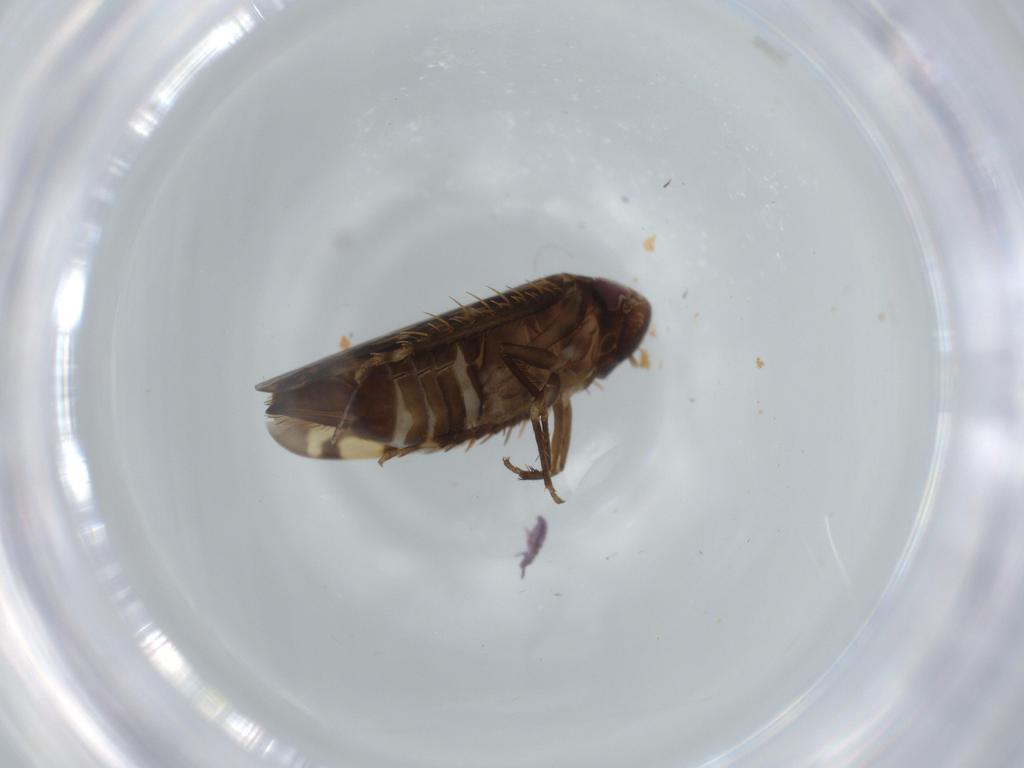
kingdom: Animalia
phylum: Arthropoda
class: Insecta
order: Hemiptera
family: Cicadellidae
